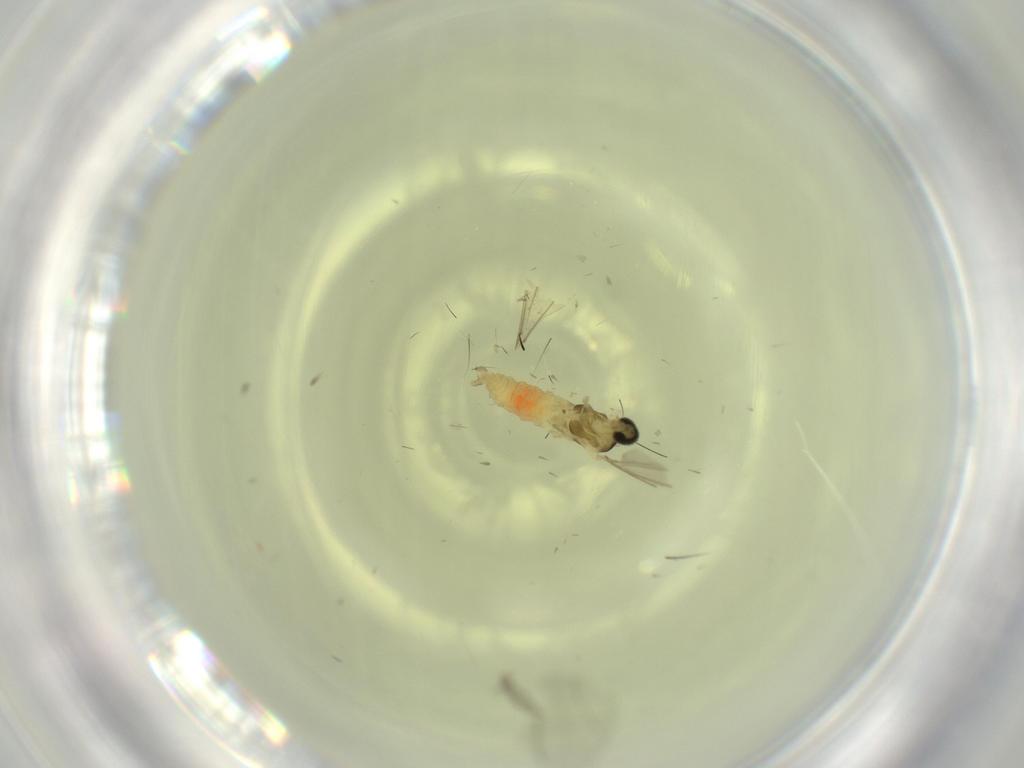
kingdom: Animalia
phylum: Arthropoda
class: Insecta
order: Diptera
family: Cecidomyiidae
